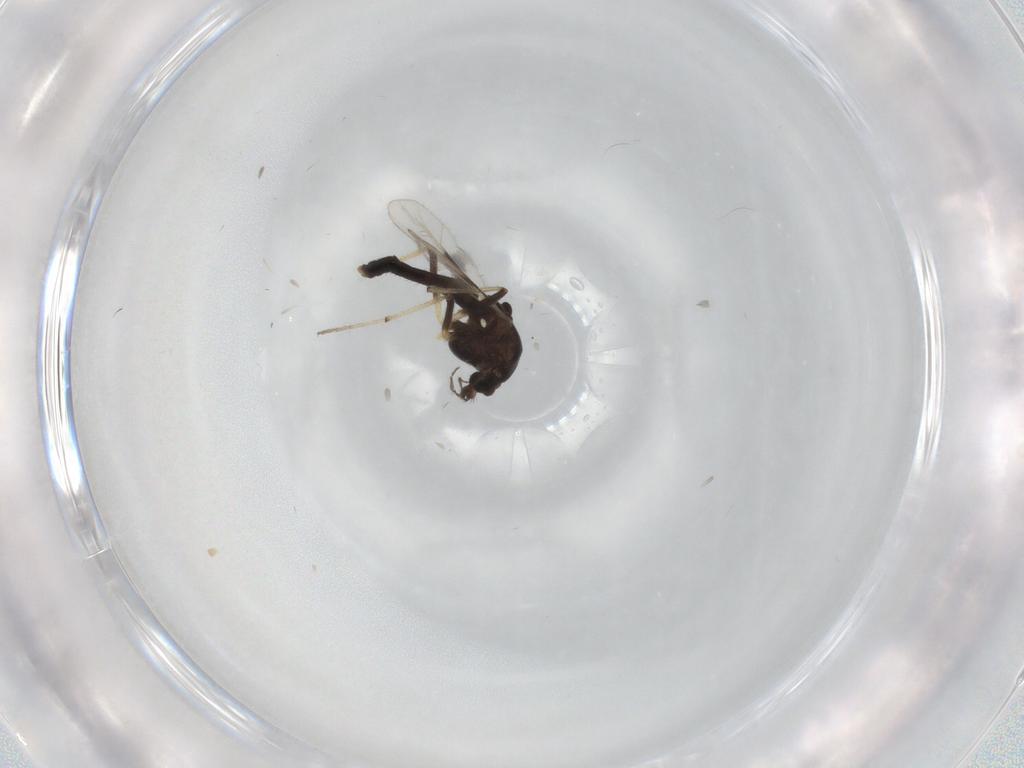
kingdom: Animalia
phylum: Arthropoda
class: Insecta
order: Diptera
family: Chironomidae
